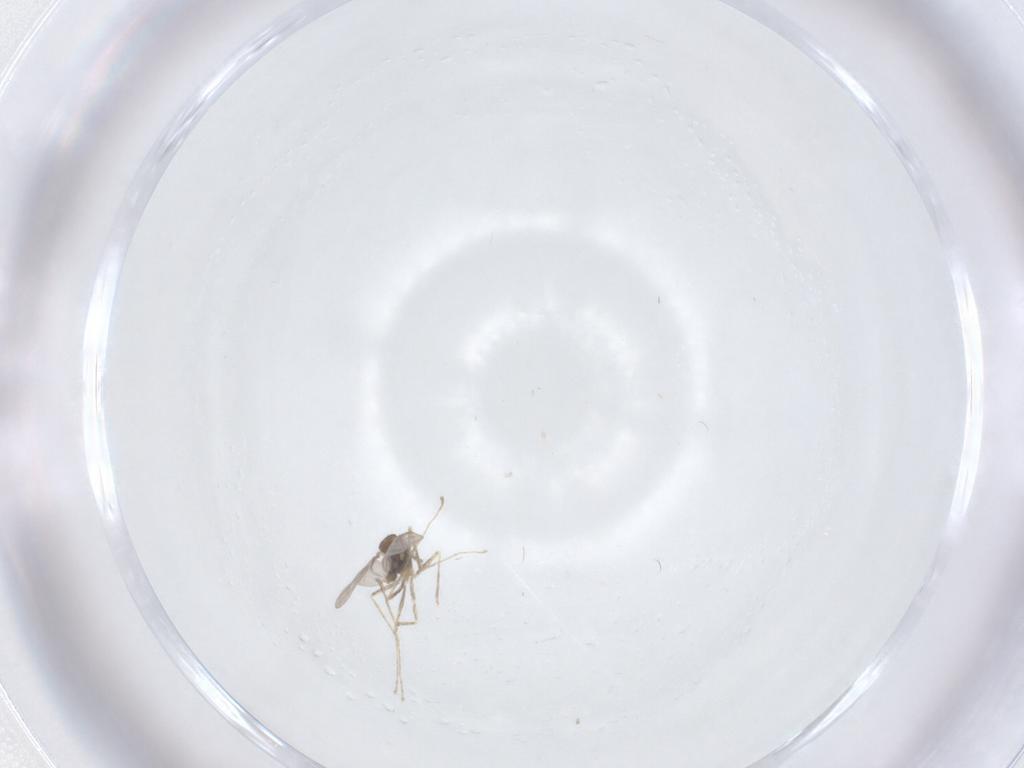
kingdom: Animalia
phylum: Arthropoda
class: Insecta
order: Diptera
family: Cecidomyiidae
